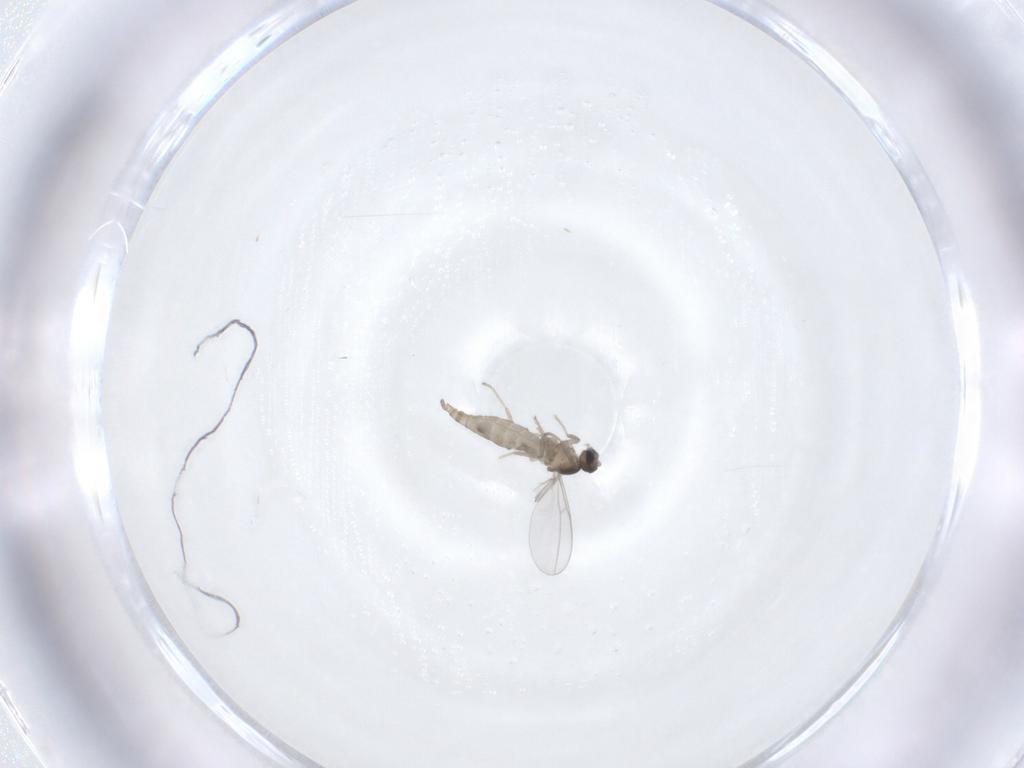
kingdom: Animalia
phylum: Arthropoda
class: Insecta
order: Diptera
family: Cecidomyiidae
